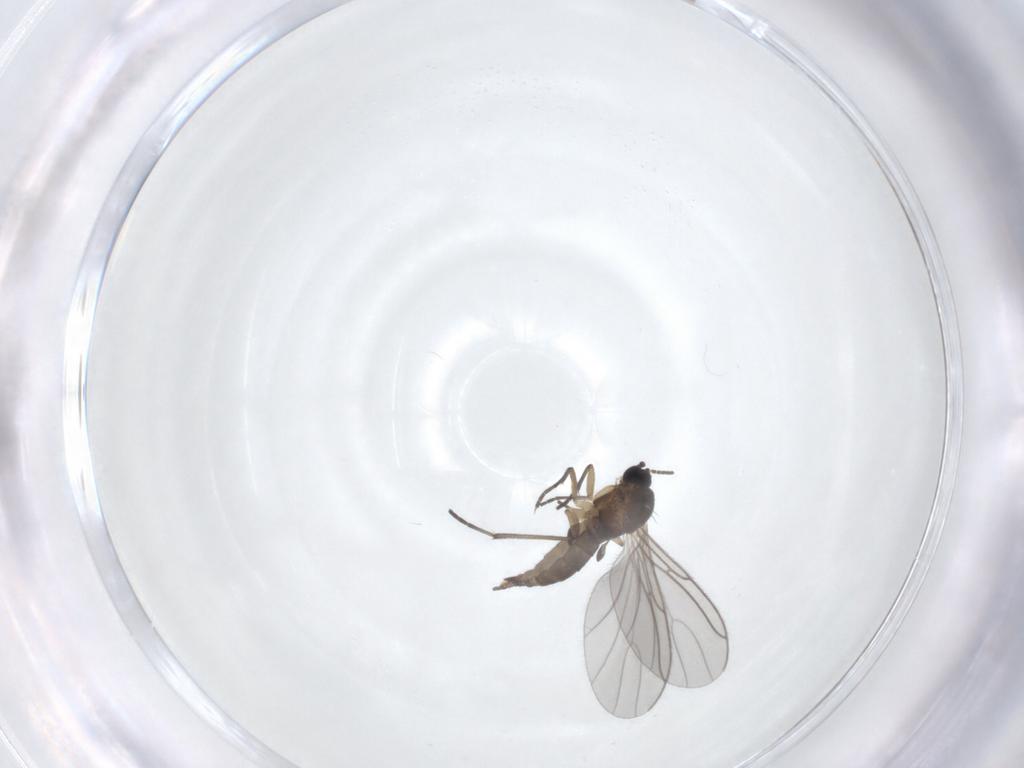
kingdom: Animalia
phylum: Arthropoda
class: Insecta
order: Diptera
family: Sciaridae
